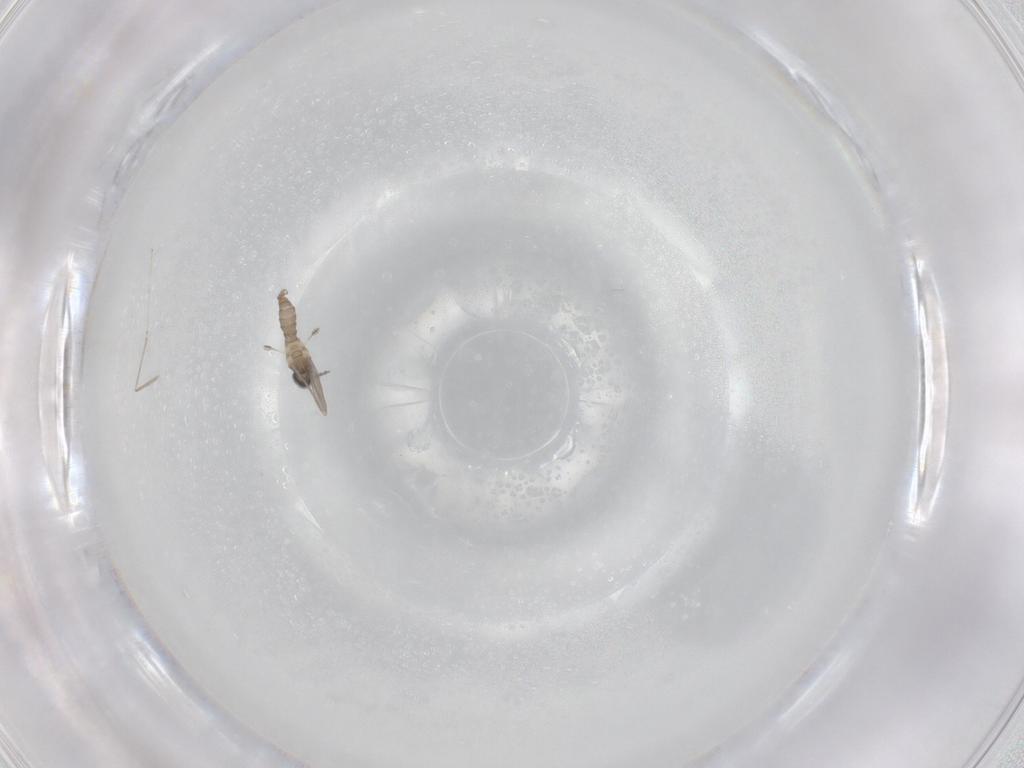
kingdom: Animalia
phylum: Arthropoda
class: Insecta
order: Diptera
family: Cecidomyiidae
